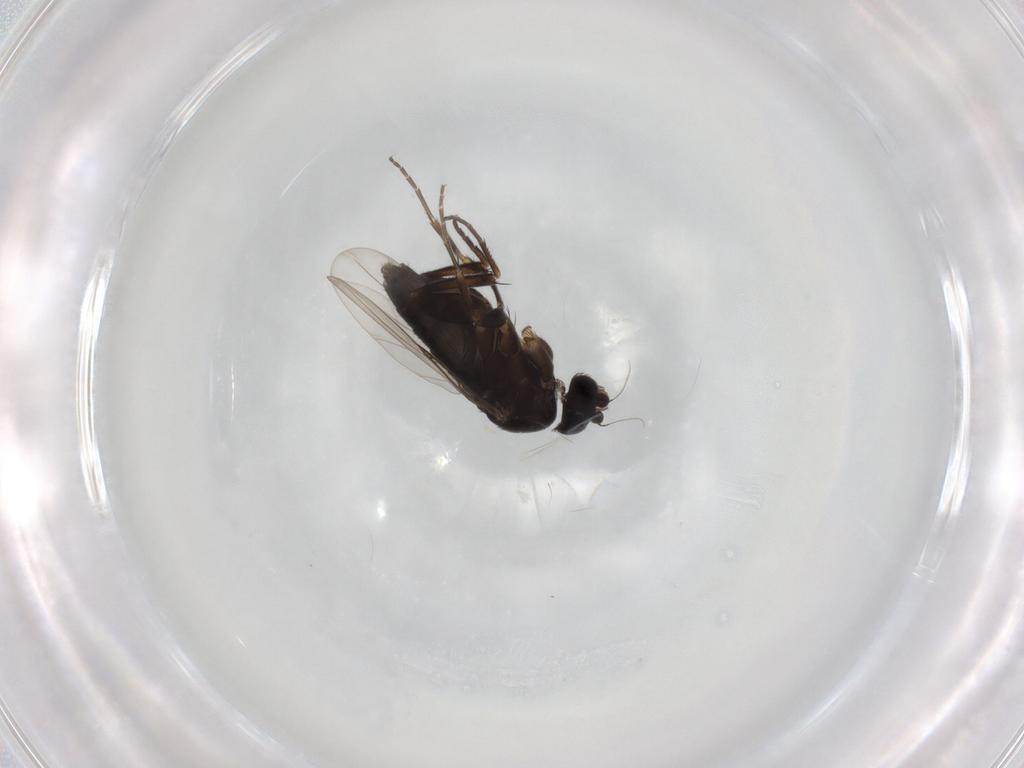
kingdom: Animalia
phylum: Arthropoda
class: Insecta
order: Diptera
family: Phoridae
